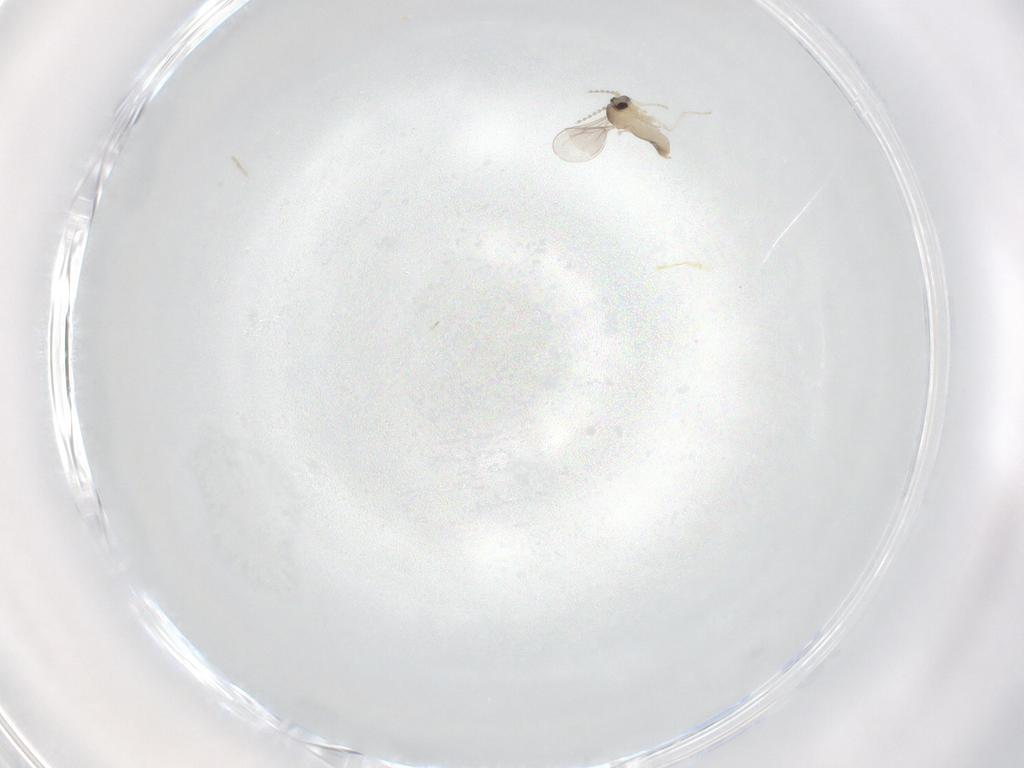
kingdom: Animalia
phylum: Arthropoda
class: Insecta
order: Diptera
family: Cecidomyiidae
